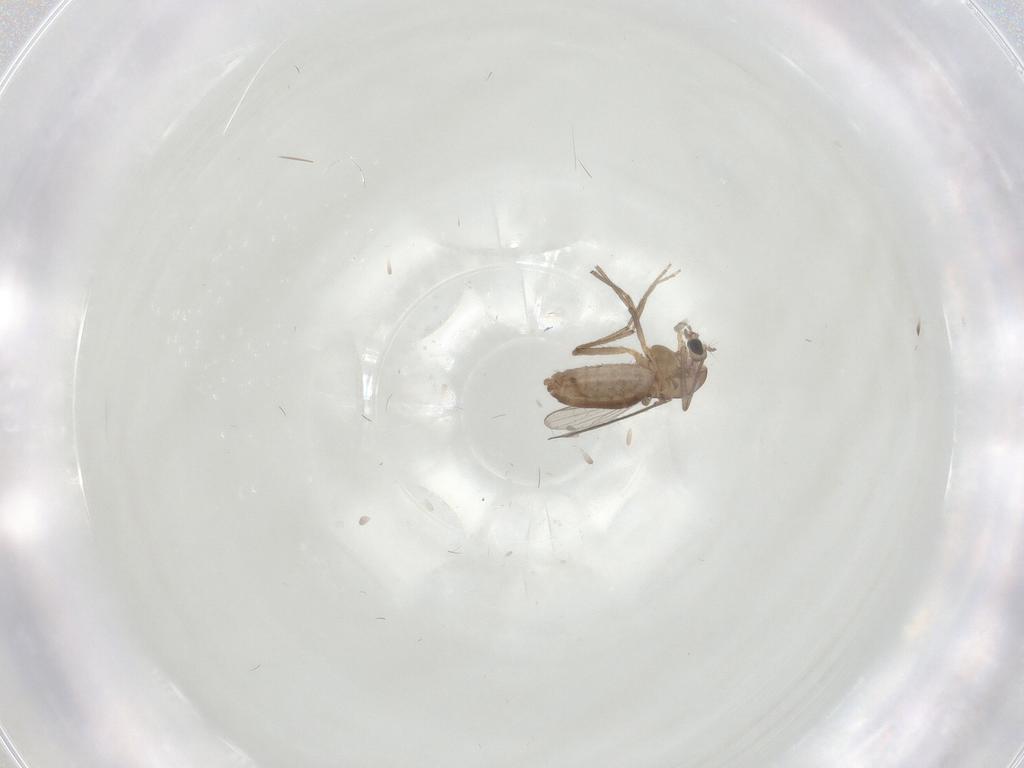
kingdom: Animalia
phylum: Arthropoda
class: Insecta
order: Diptera
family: Chironomidae
